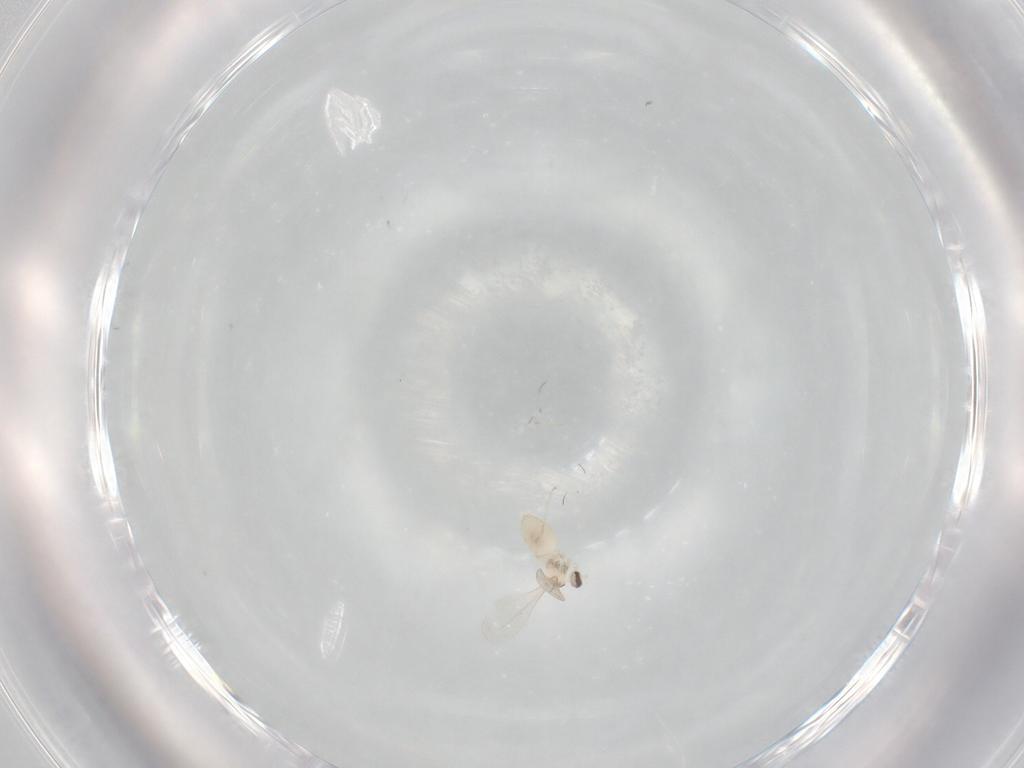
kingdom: Animalia
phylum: Arthropoda
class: Insecta
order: Diptera
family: Cecidomyiidae
